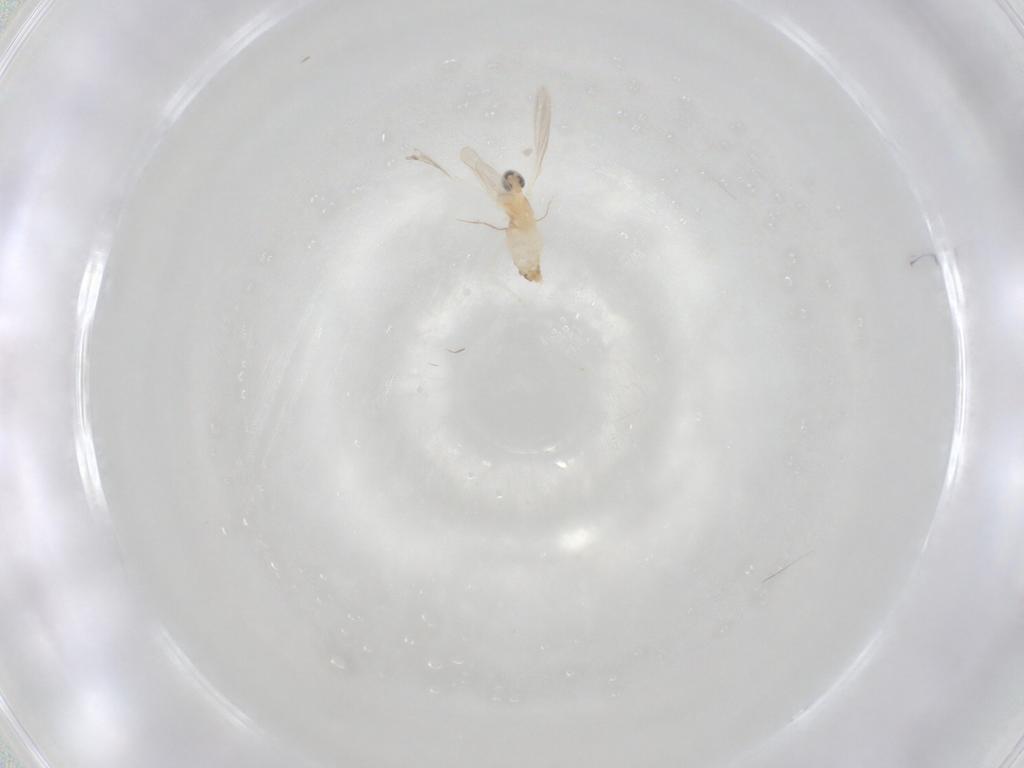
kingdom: Animalia
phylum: Arthropoda
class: Insecta
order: Diptera
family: Cecidomyiidae
